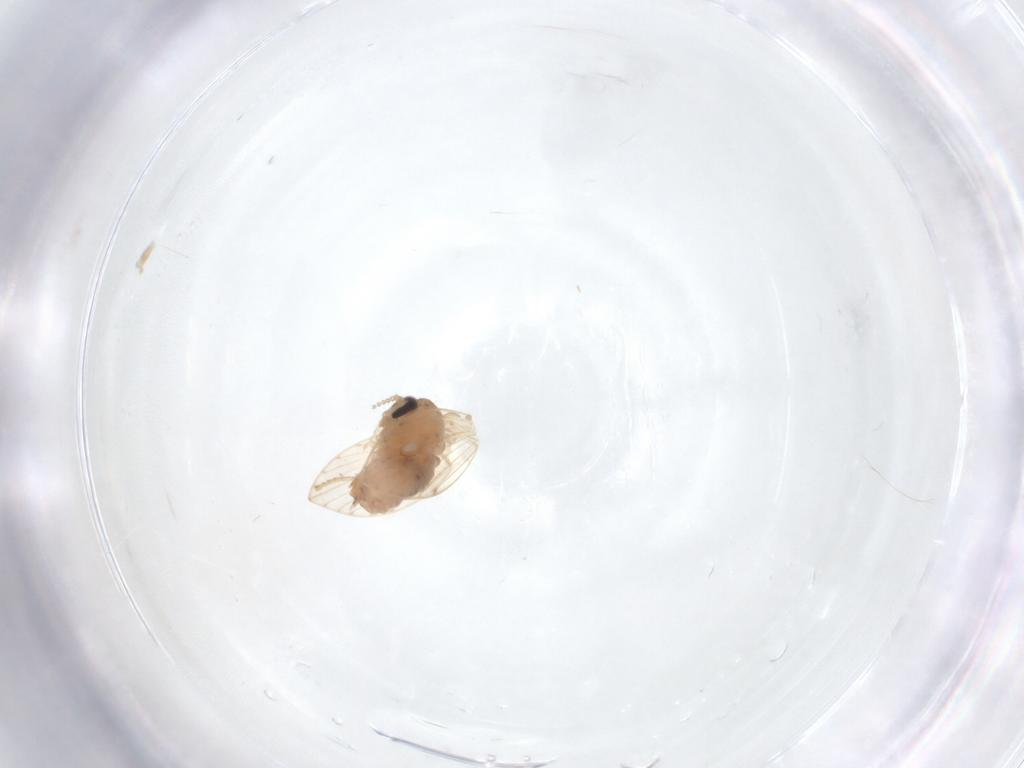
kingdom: Animalia
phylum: Arthropoda
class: Insecta
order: Diptera
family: Psychodidae
